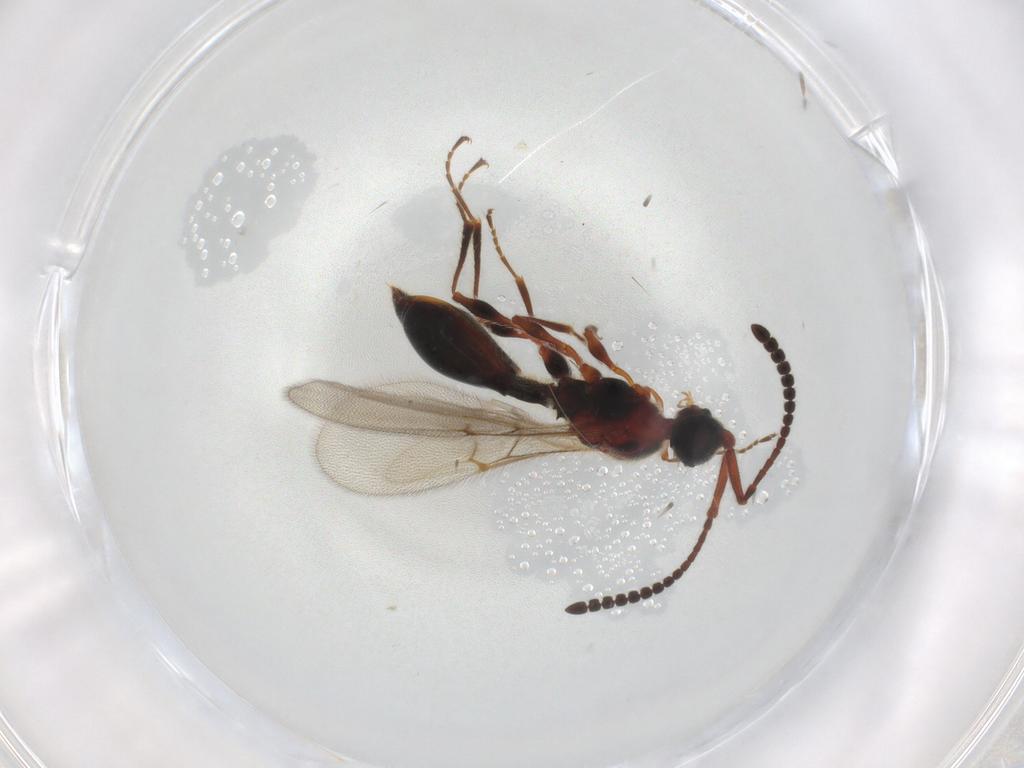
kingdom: Animalia
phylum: Arthropoda
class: Insecta
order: Hymenoptera
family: Diapriidae
